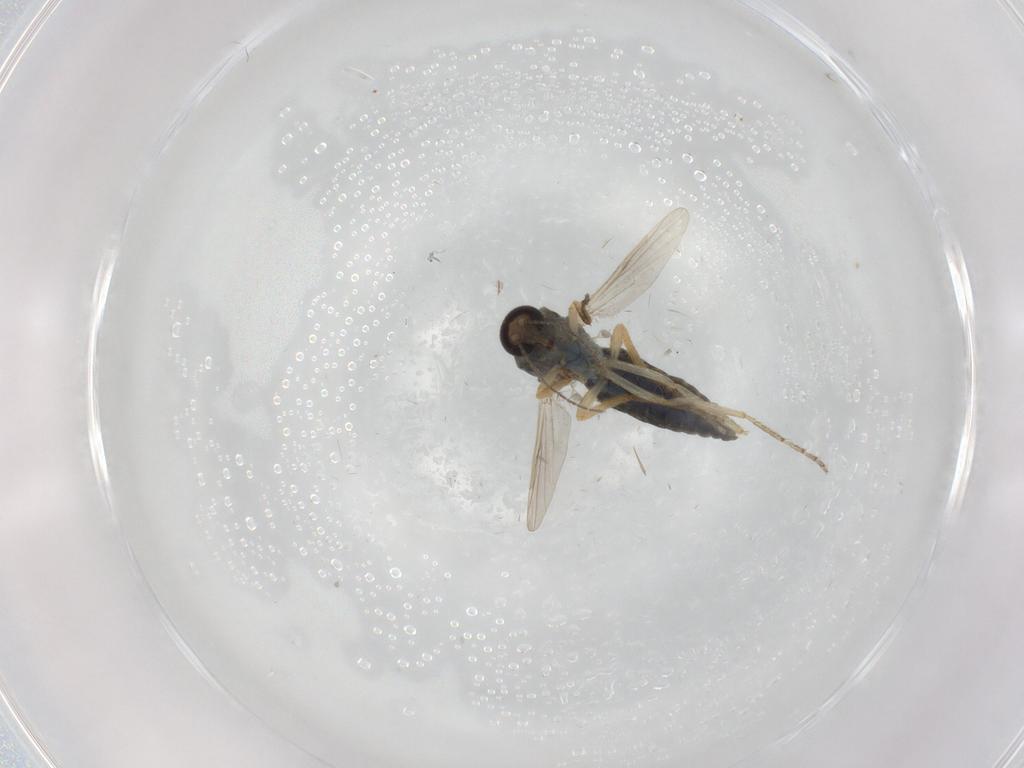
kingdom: Animalia
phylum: Arthropoda
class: Insecta
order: Diptera
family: Ceratopogonidae
